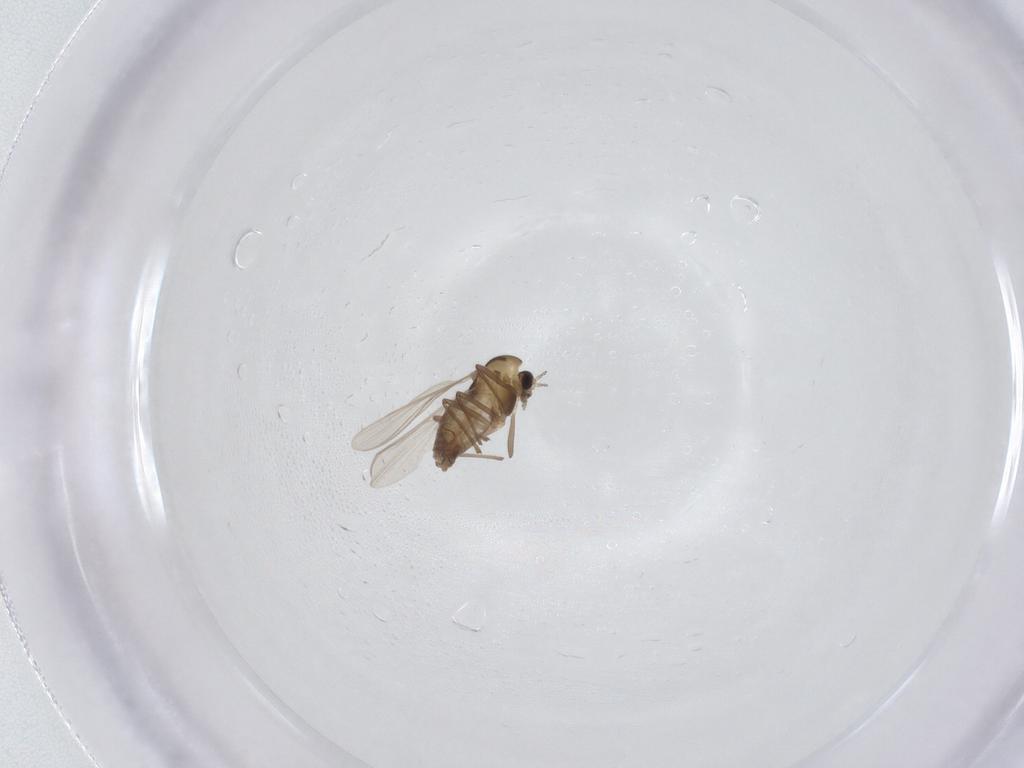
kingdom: Animalia
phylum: Arthropoda
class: Insecta
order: Diptera
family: Chironomidae
